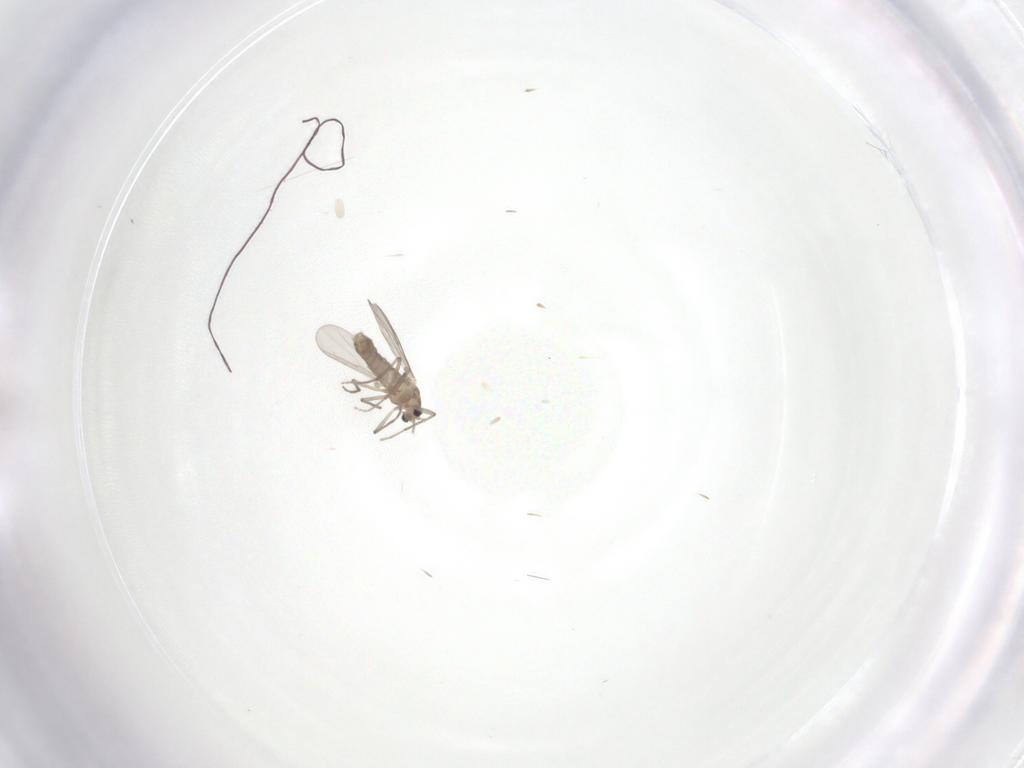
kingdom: Animalia
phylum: Arthropoda
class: Insecta
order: Diptera
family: Chironomidae
